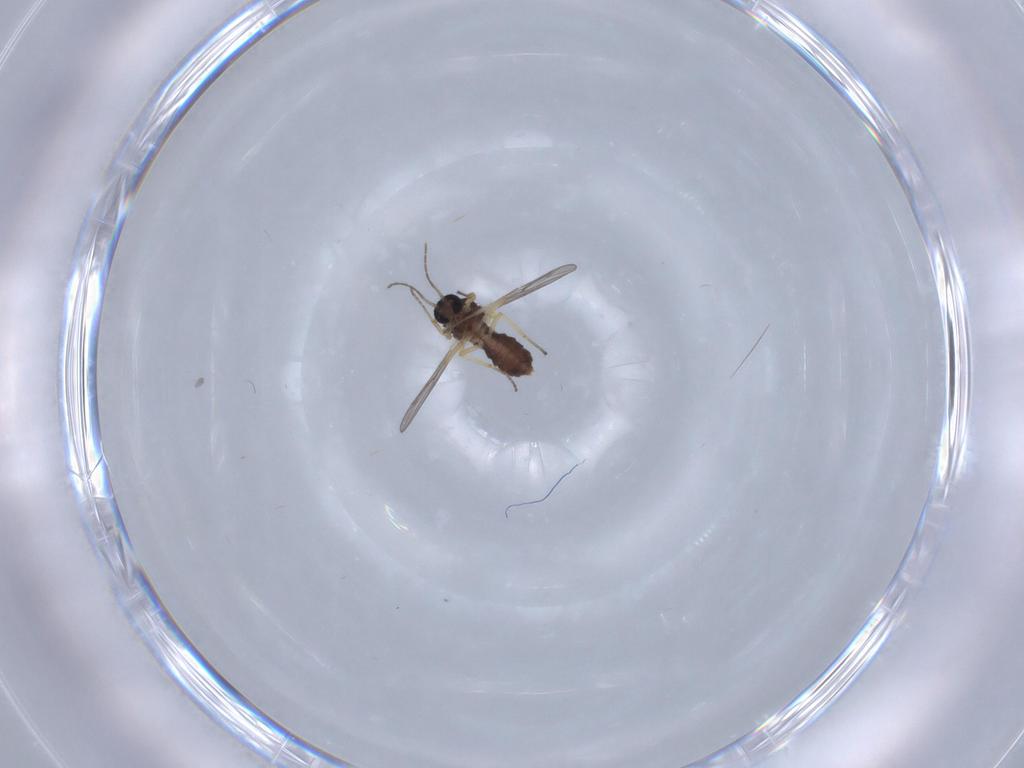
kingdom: Animalia
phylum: Arthropoda
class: Insecta
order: Diptera
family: Ceratopogonidae
